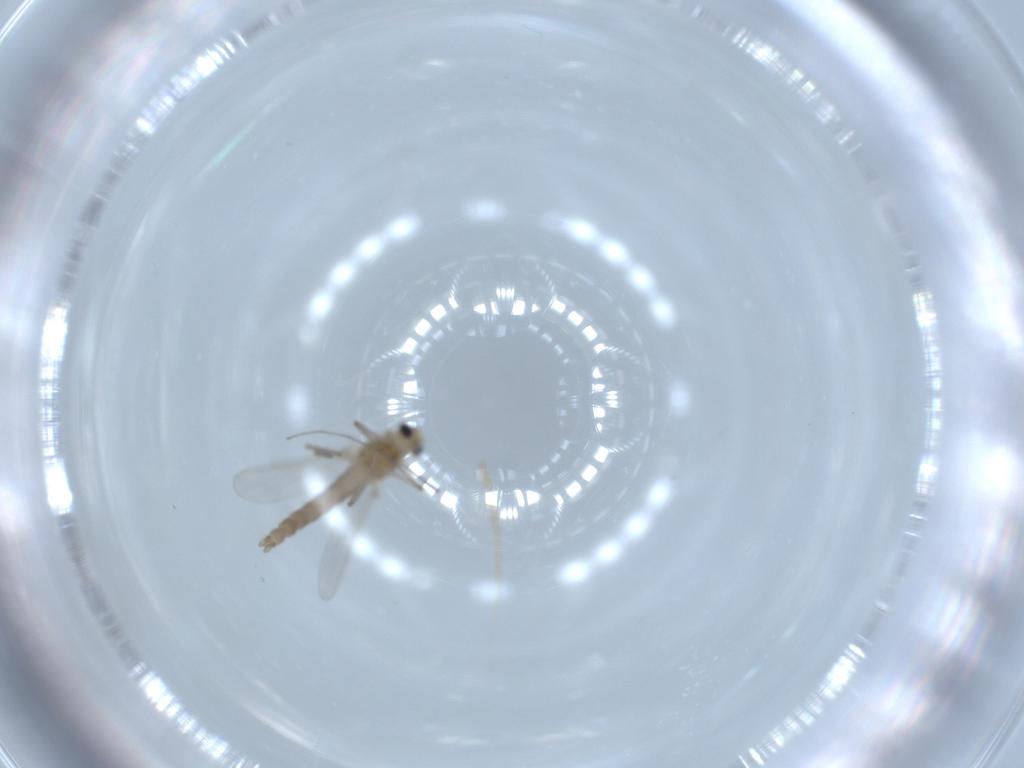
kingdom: Animalia
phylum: Arthropoda
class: Insecta
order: Diptera
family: Chironomidae
